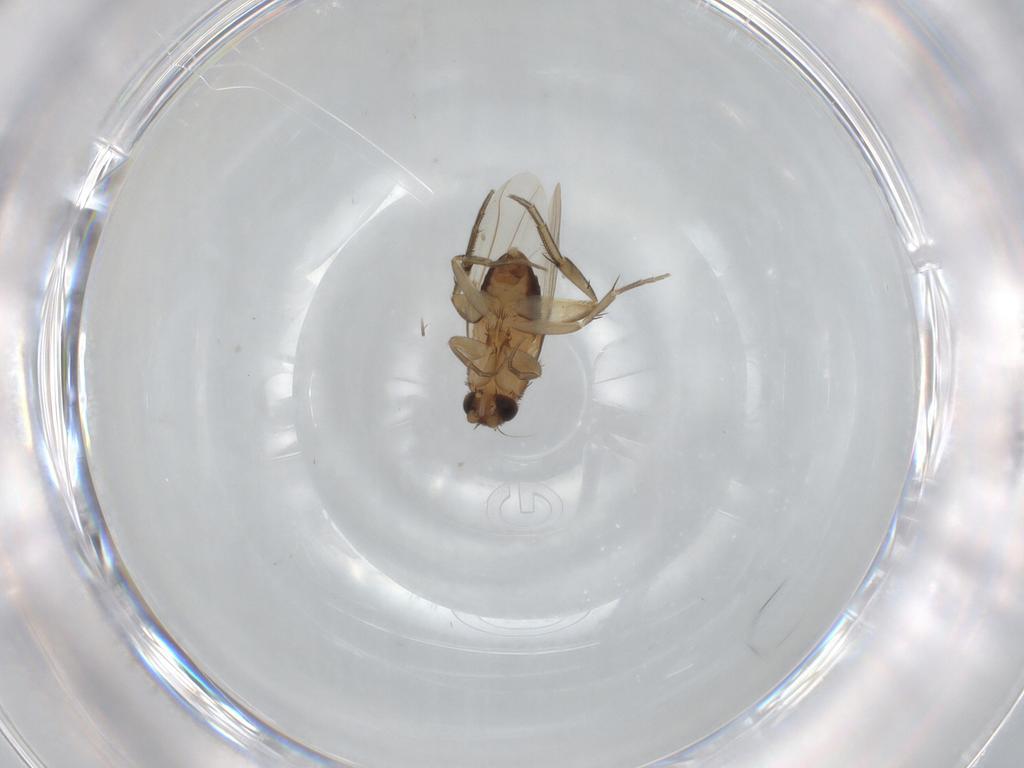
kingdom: Animalia
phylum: Arthropoda
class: Insecta
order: Diptera
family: Phoridae
